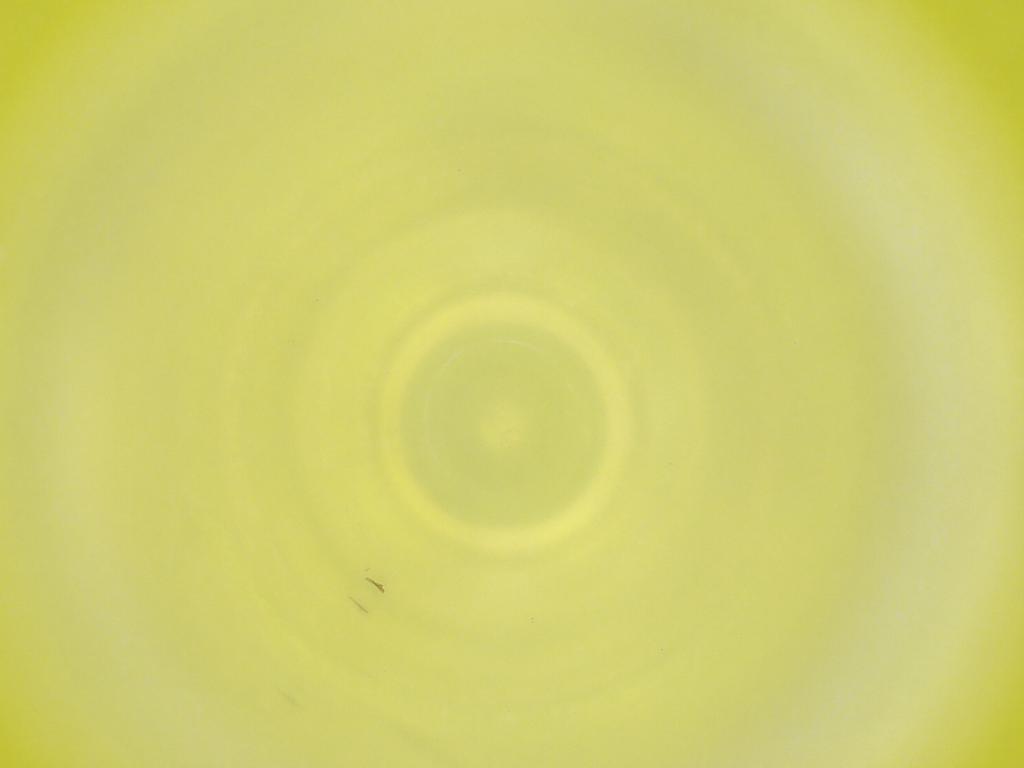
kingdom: Animalia
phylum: Arthropoda
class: Insecta
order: Diptera
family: Cecidomyiidae
